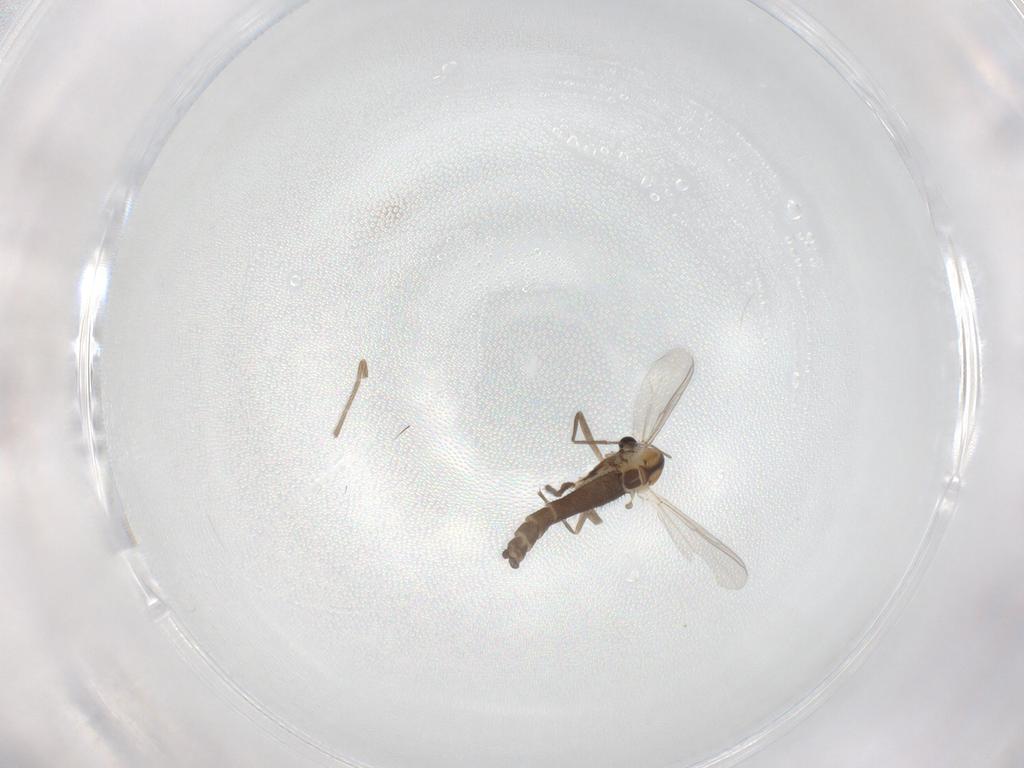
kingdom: Animalia
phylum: Arthropoda
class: Insecta
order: Diptera
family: Chironomidae
